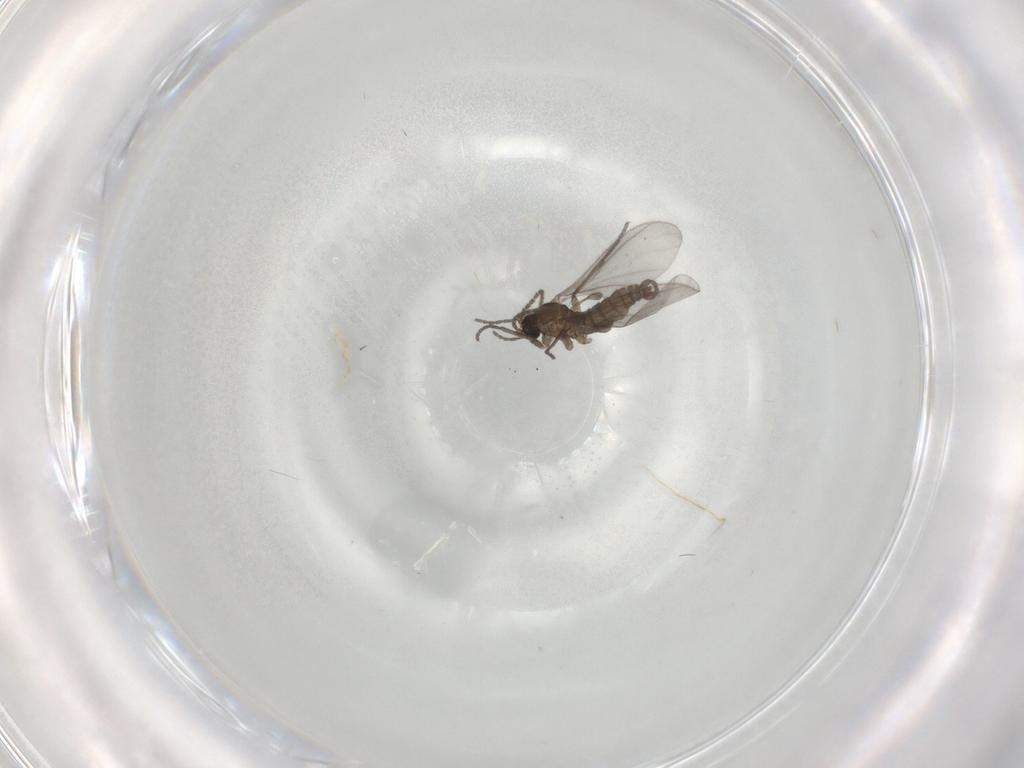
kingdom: Animalia
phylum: Arthropoda
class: Insecta
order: Diptera
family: Sciaridae
